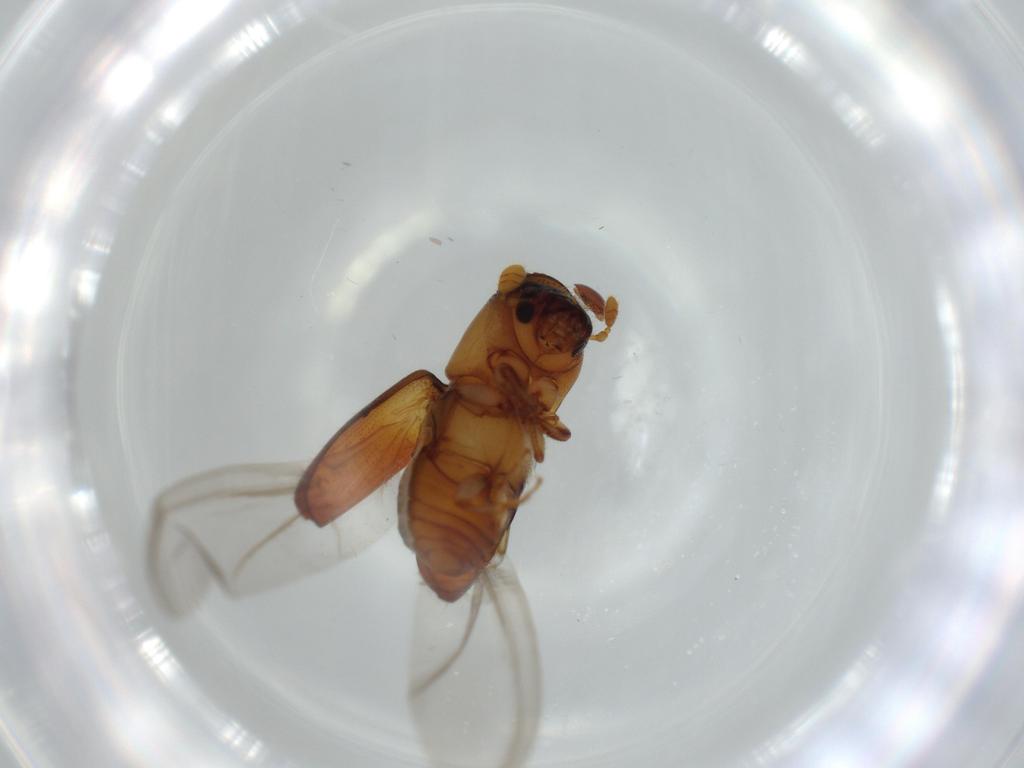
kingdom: Animalia
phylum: Arthropoda
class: Insecta
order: Coleoptera
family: Curculionidae
